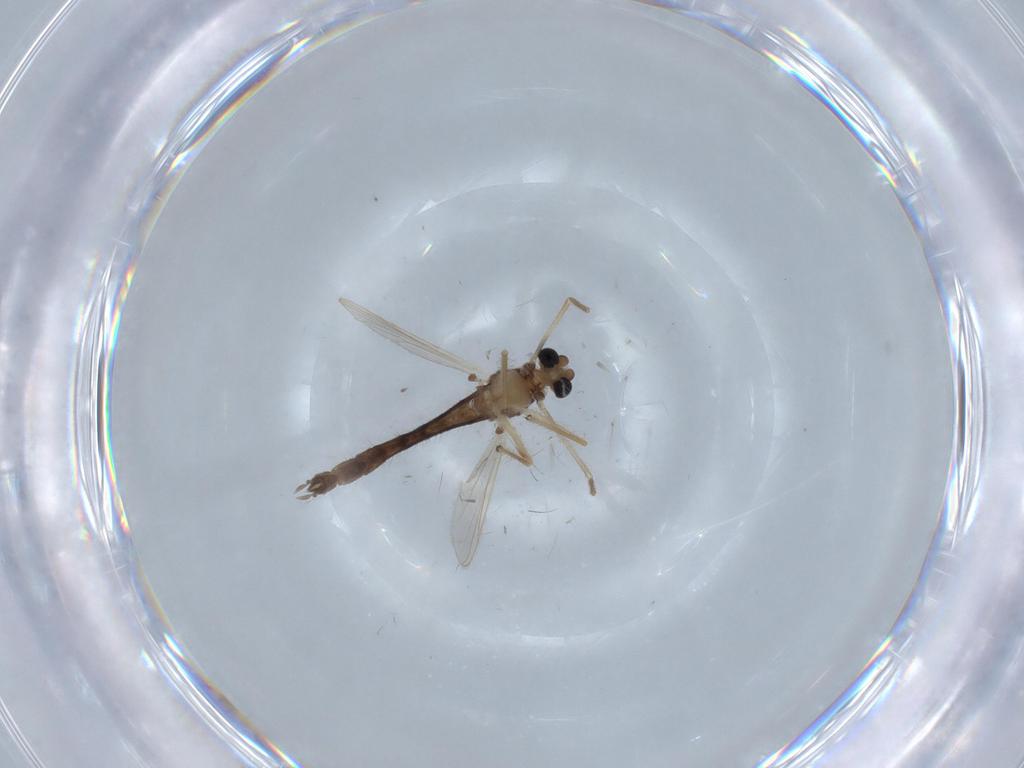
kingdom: Animalia
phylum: Arthropoda
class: Insecta
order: Diptera
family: Chironomidae
